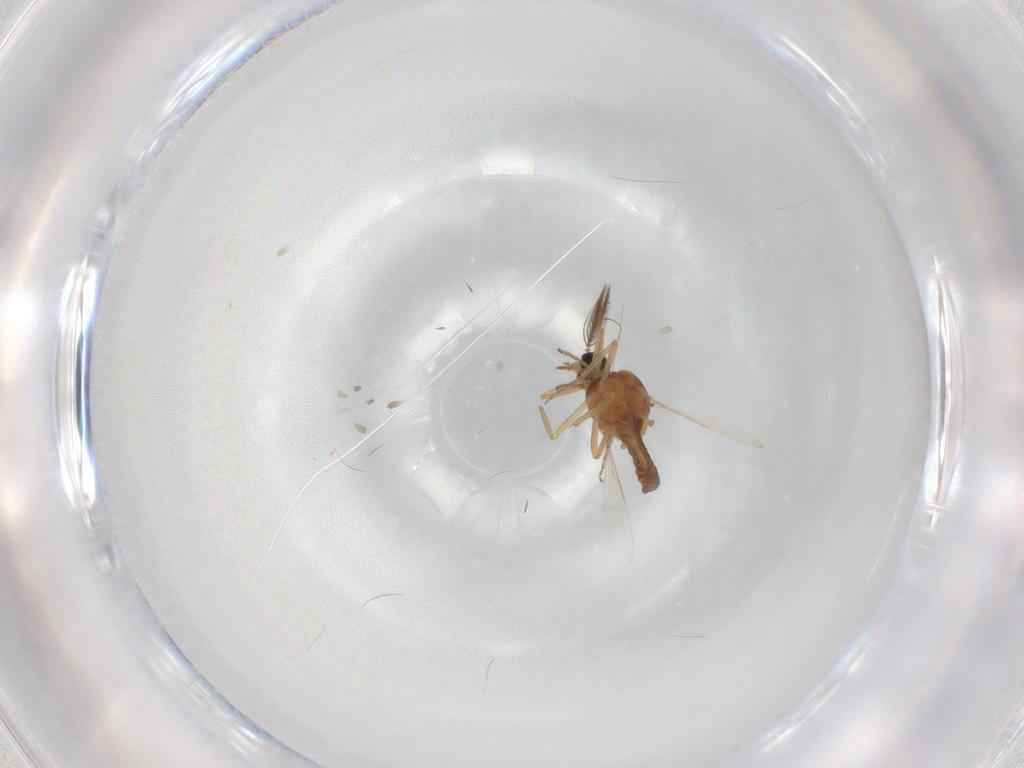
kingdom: Animalia
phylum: Arthropoda
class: Insecta
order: Diptera
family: Ceratopogonidae
